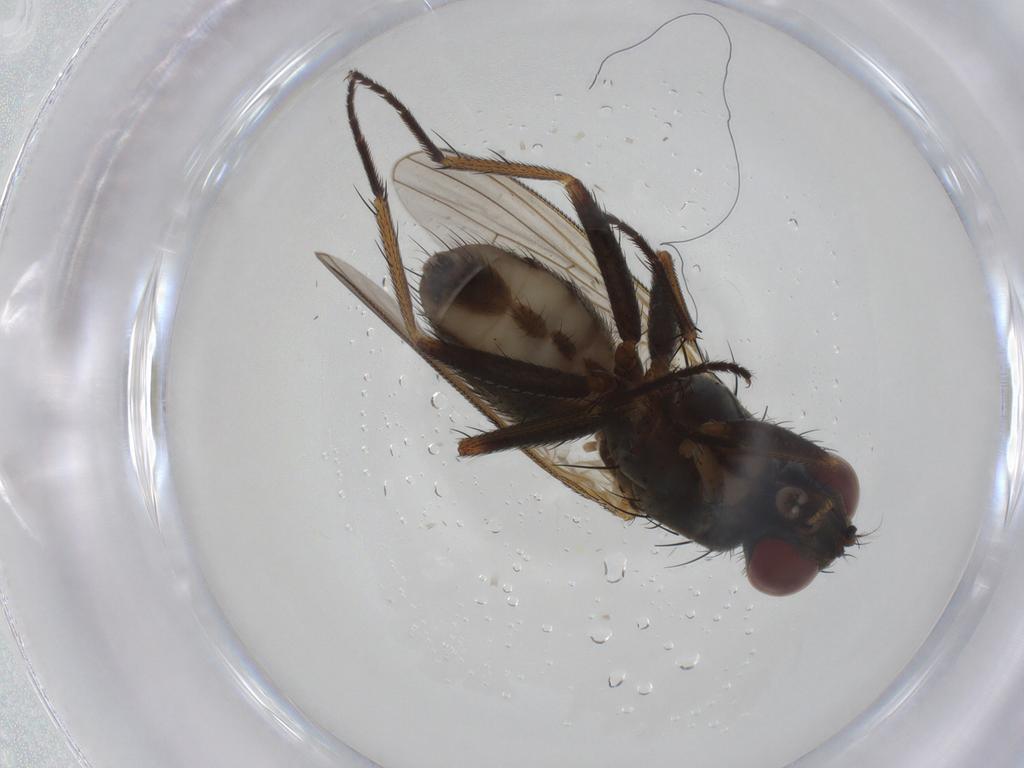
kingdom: Animalia
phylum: Arthropoda
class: Insecta
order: Diptera
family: Muscidae
